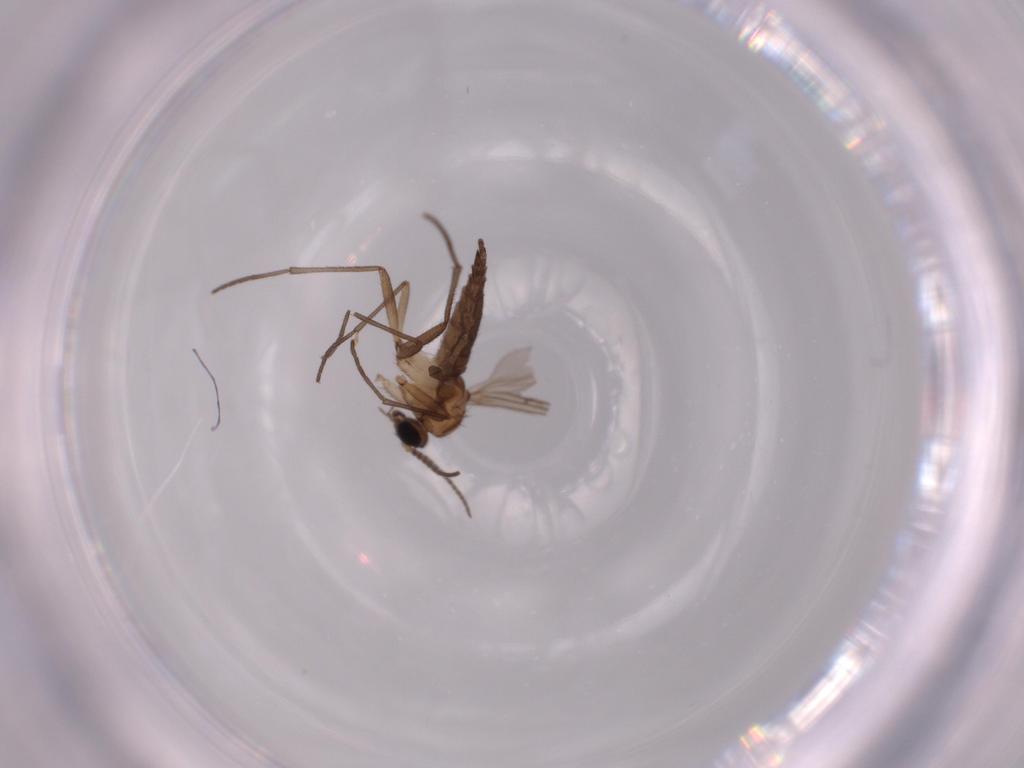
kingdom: Animalia
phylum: Arthropoda
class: Insecta
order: Diptera
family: Sciaridae
